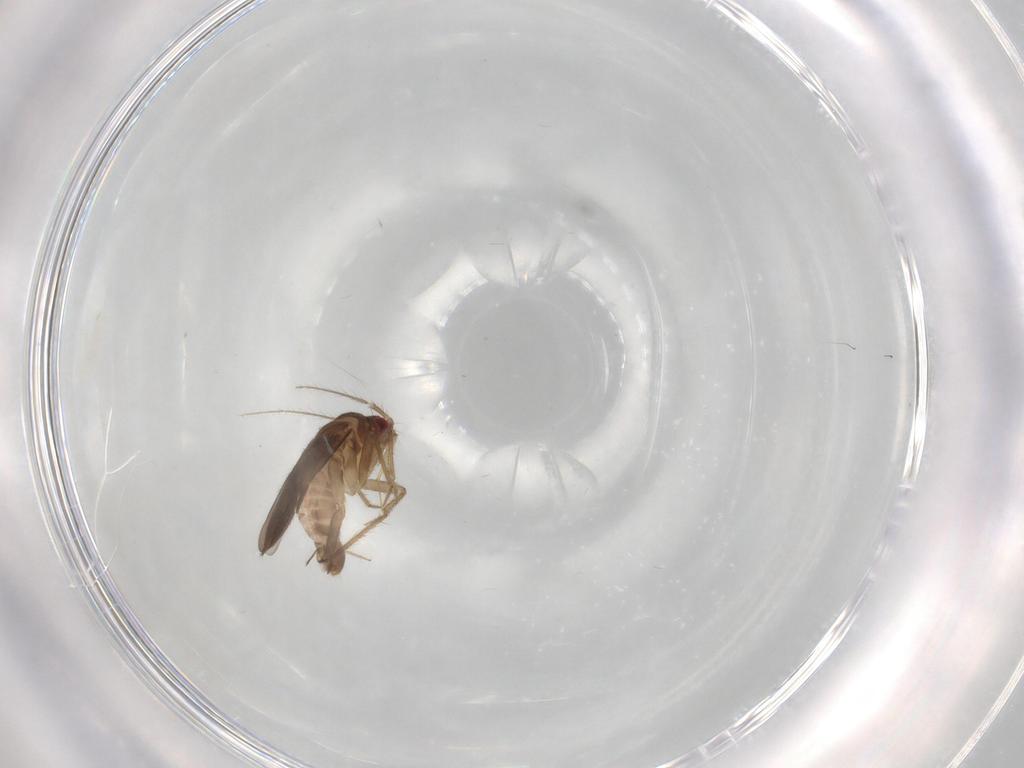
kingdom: Animalia
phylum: Arthropoda
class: Insecta
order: Hemiptera
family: Ceratocombidae
